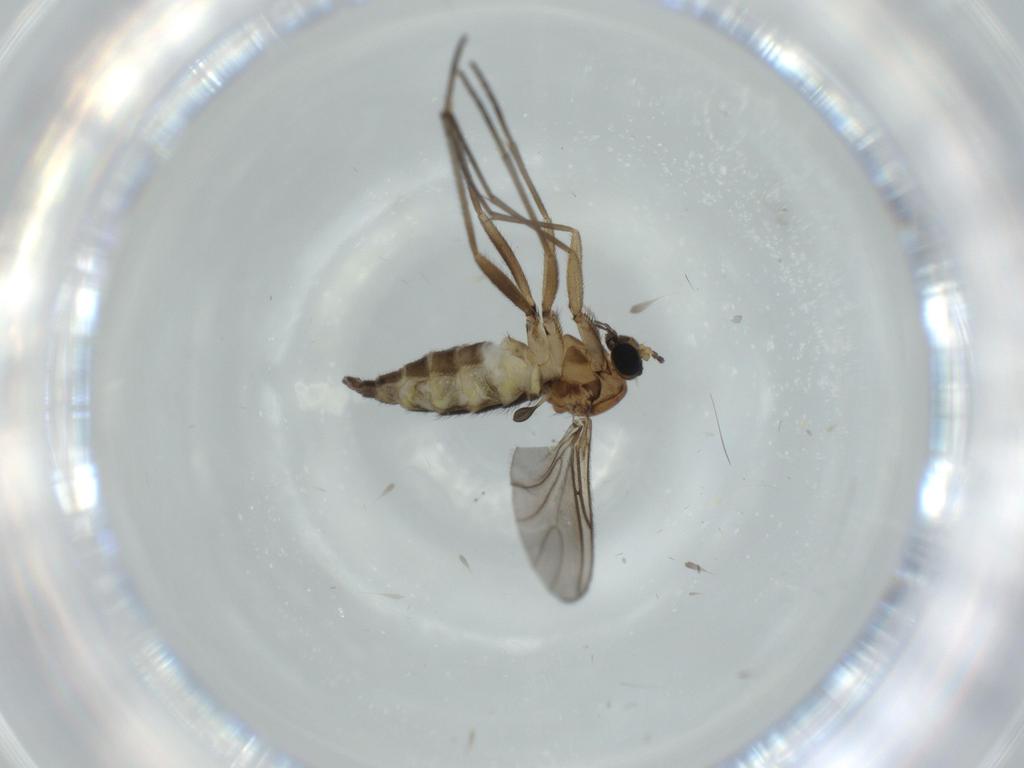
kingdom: Animalia
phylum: Arthropoda
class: Insecta
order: Diptera
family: Sciaridae
